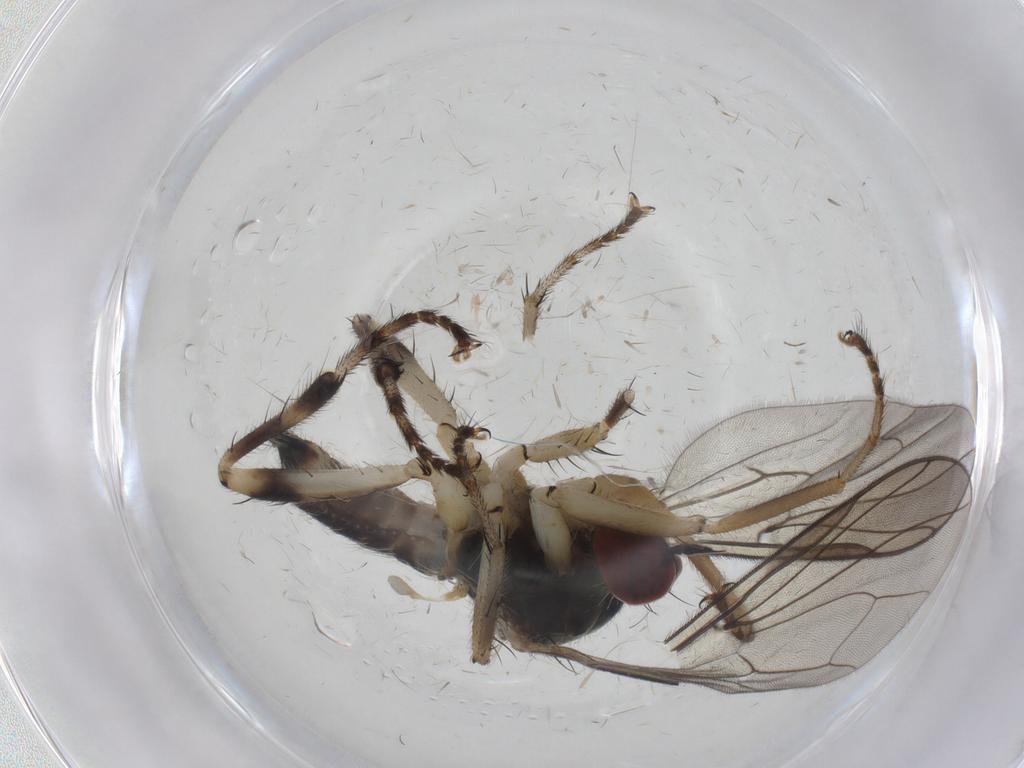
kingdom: Animalia
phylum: Arthropoda
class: Insecta
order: Diptera
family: Hybotidae
